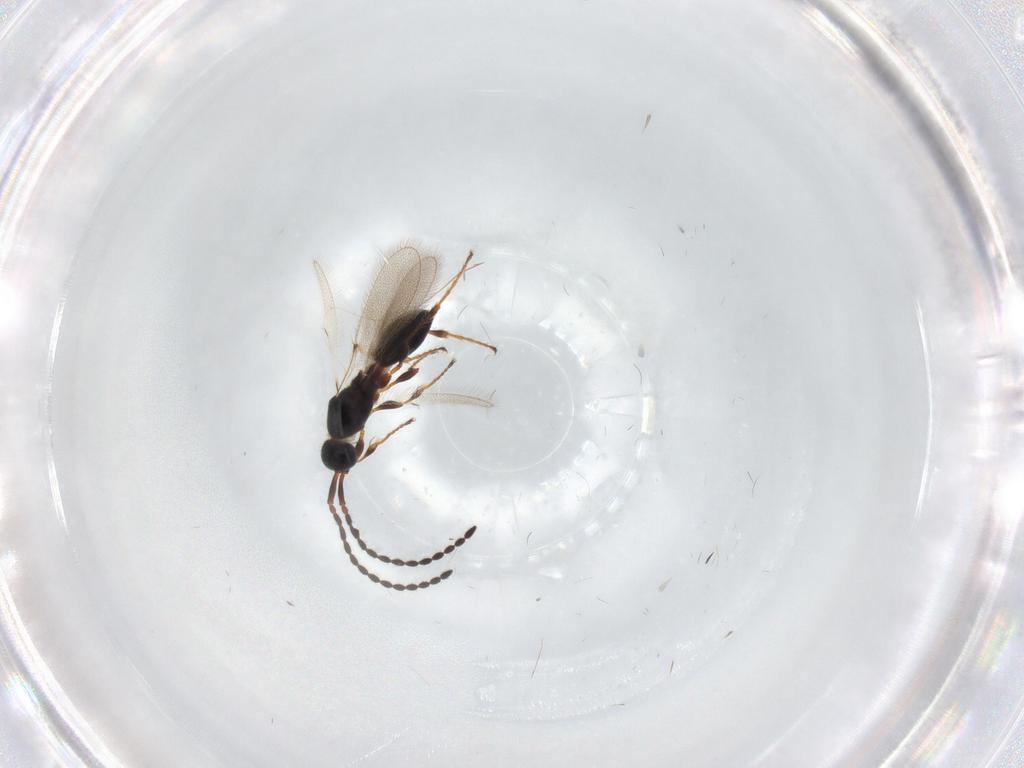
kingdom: Animalia
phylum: Arthropoda
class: Insecta
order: Hymenoptera
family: Diapriidae
